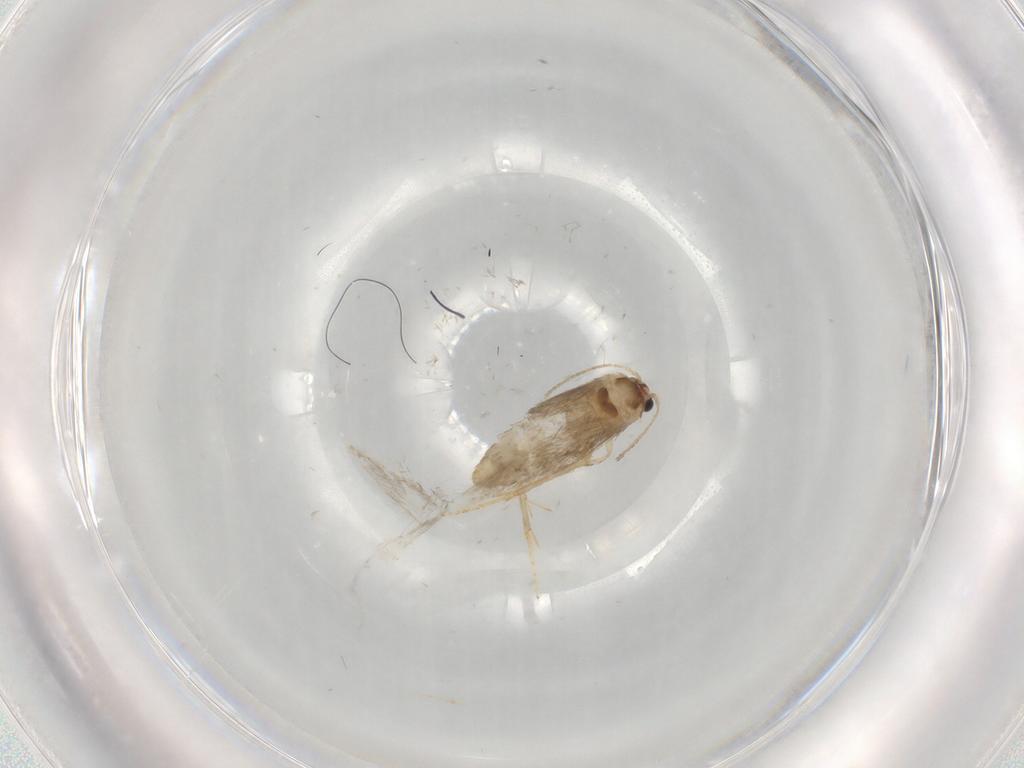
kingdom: Animalia
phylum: Arthropoda
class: Insecta
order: Lepidoptera
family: Nepticulidae
